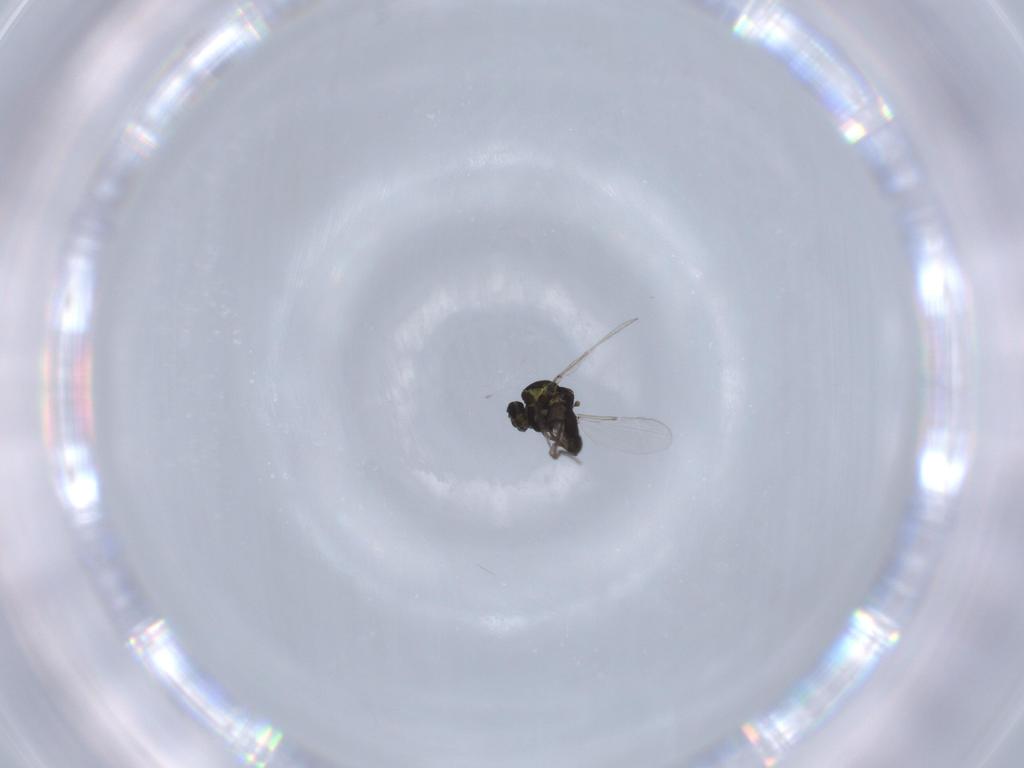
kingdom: Animalia
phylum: Arthropoda
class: Insecta
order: Diptera
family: Ceratopogonidae
